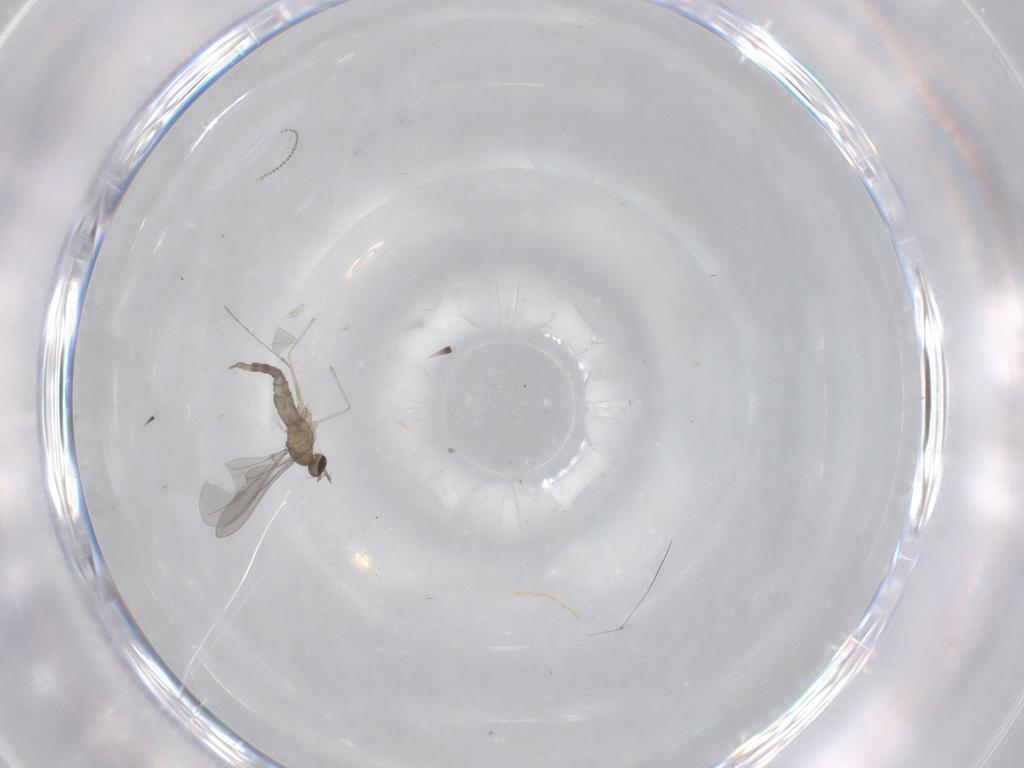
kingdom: Animalia
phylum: Arthropoda
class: Insecta
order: Diptera
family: Cecidomyiidae
